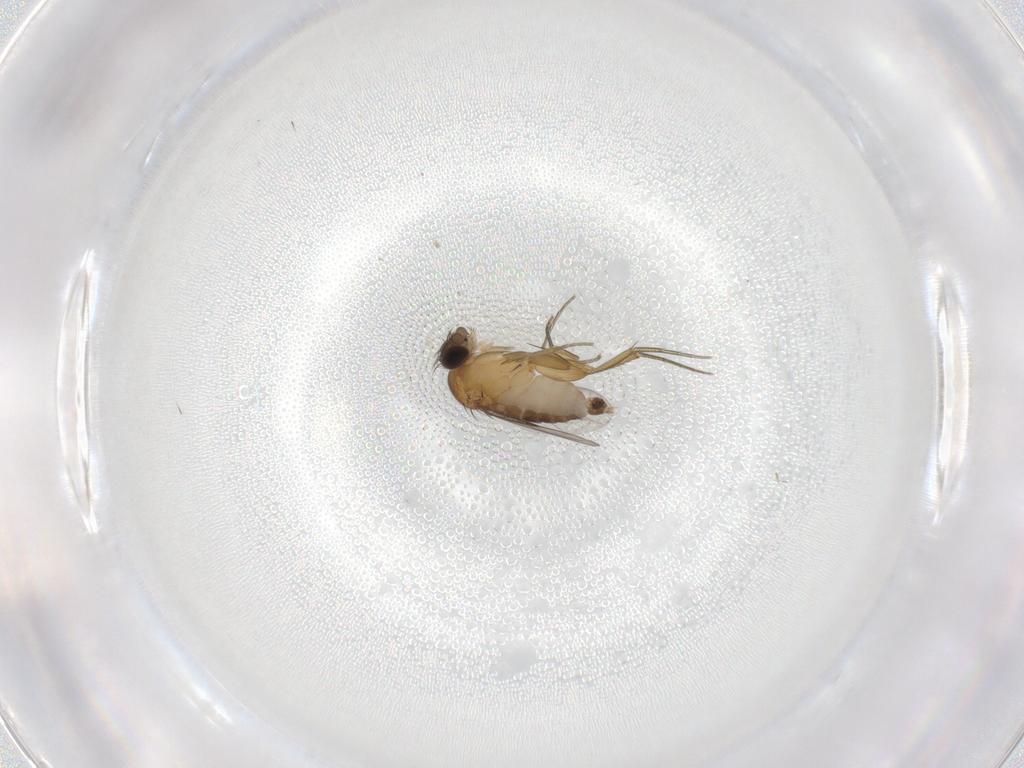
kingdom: Animalia
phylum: Arthropoda
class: Insecta
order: Diptera
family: Phoridae
